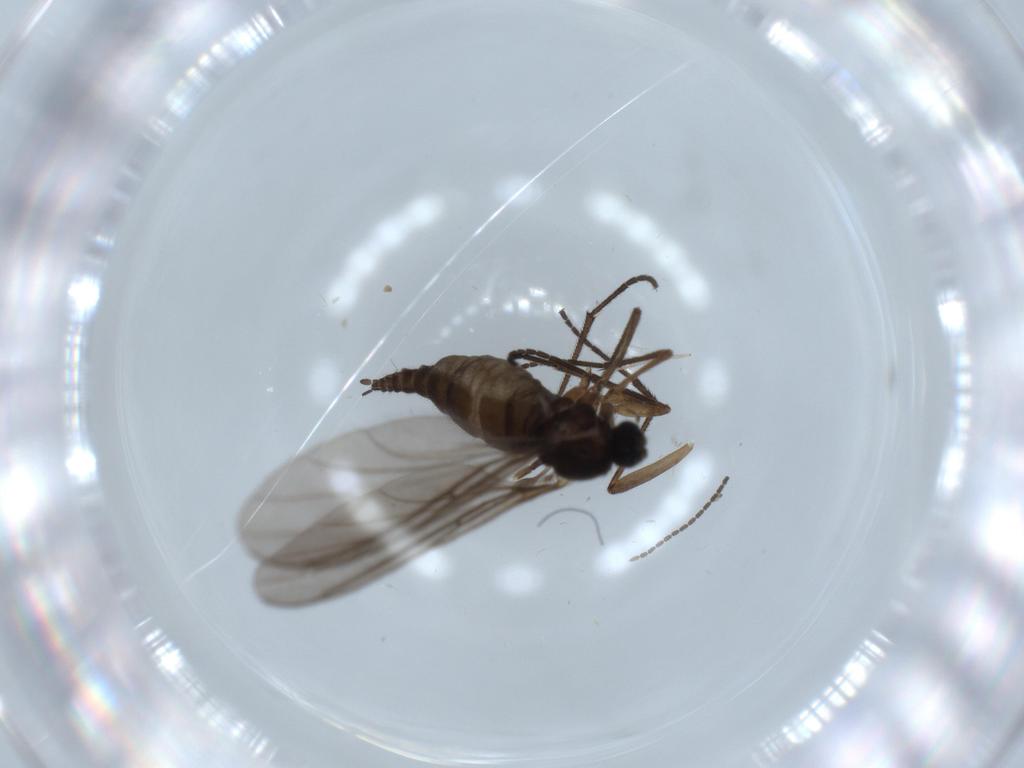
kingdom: Animalia
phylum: Arthropoda
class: Insecta
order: Diptera
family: Sciaridae
